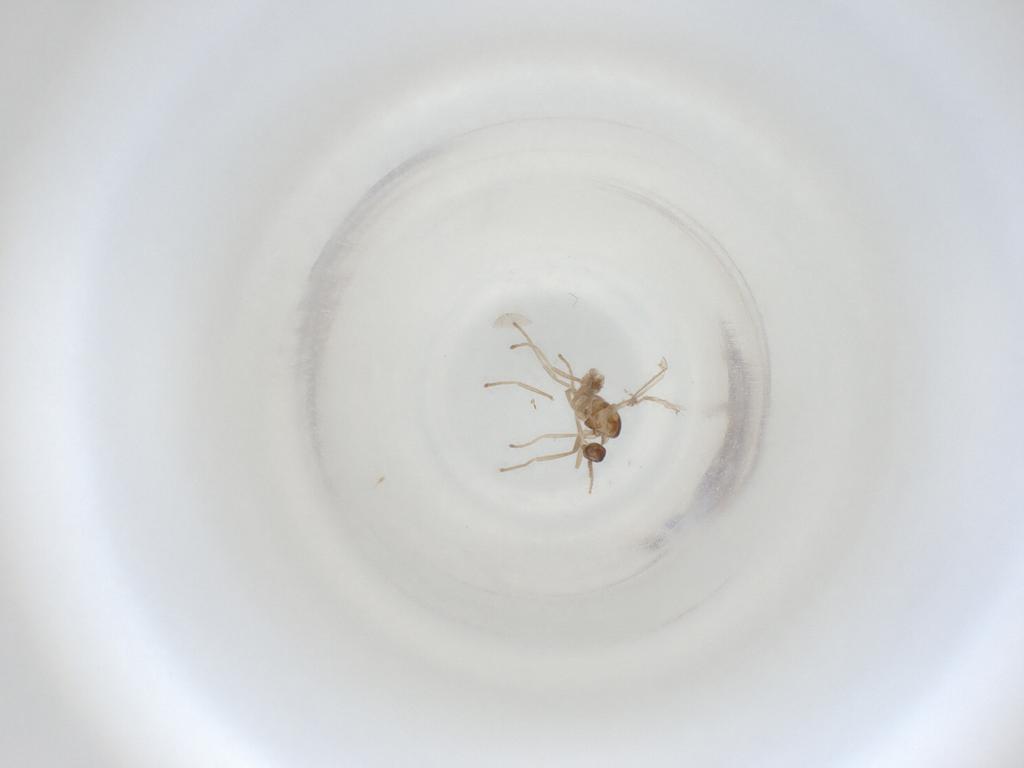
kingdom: Animalia
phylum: Arthropoda
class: Insecta
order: Diptera
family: Cecidomyiidae
